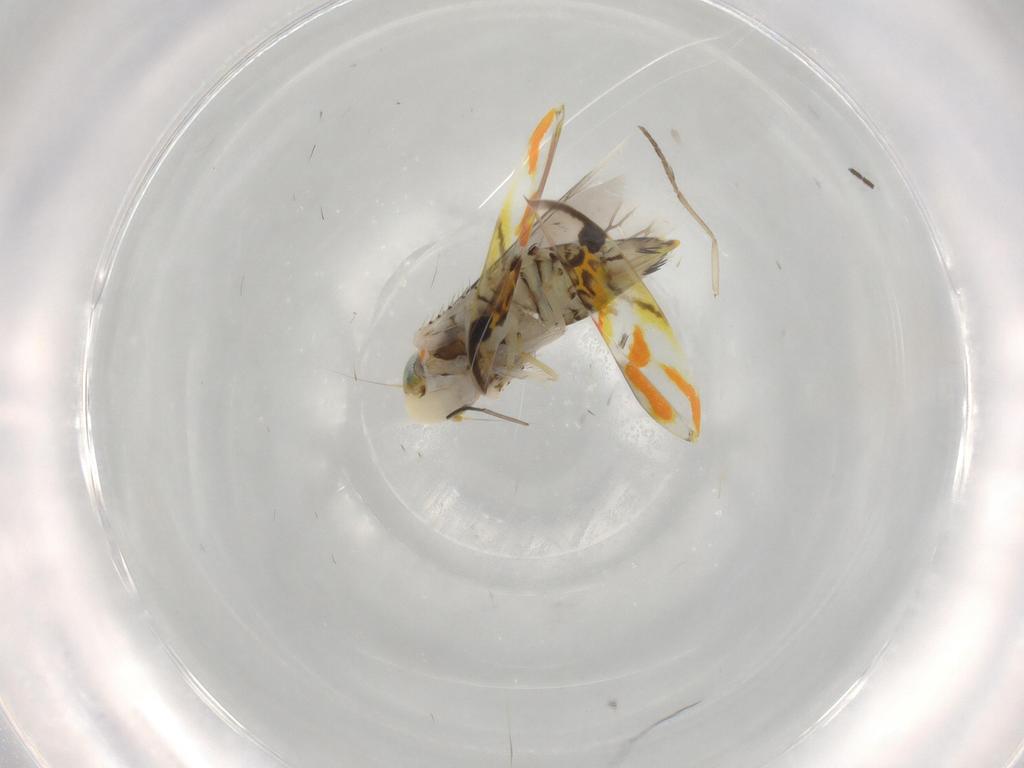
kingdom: Animalia
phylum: Arthropoda
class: Insecta
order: Hemiptera
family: Cicadellidae
